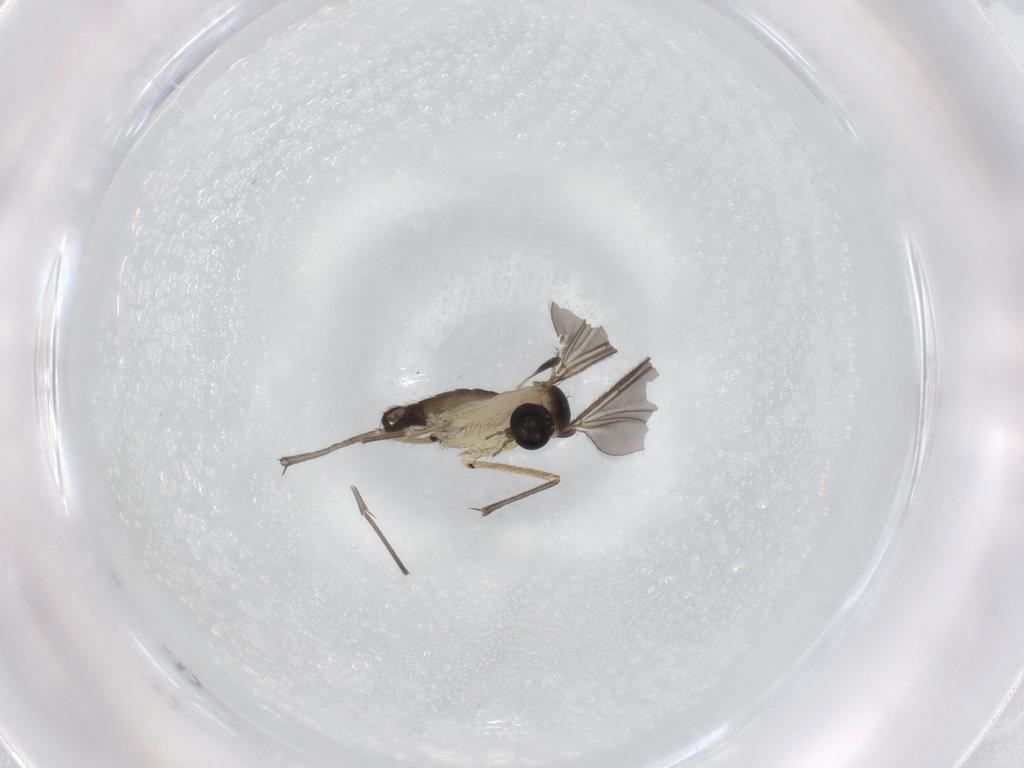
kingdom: Animalia
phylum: Arthropoda
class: Insecta
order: Diptera
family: Sciaridae
